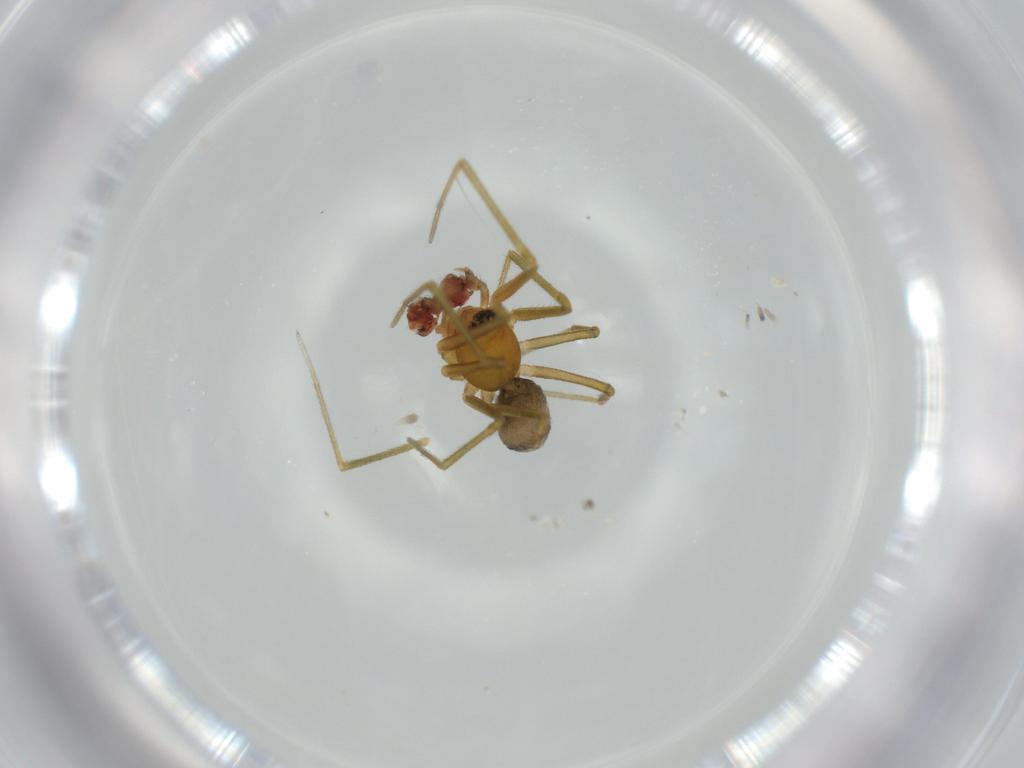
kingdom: Animalia
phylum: Arthropoda
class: Arachnida
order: Araneae
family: Linyphiidae
